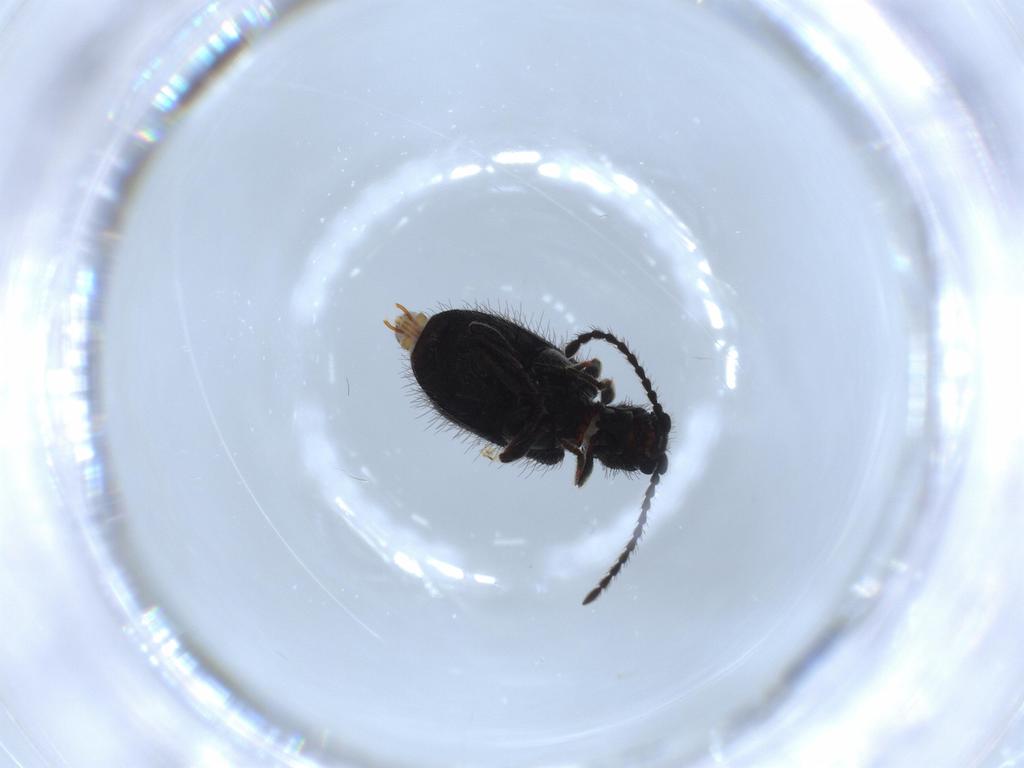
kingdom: Animalia
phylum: Arthropoda
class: Insecta
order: Coleoptera
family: Ptinidae
